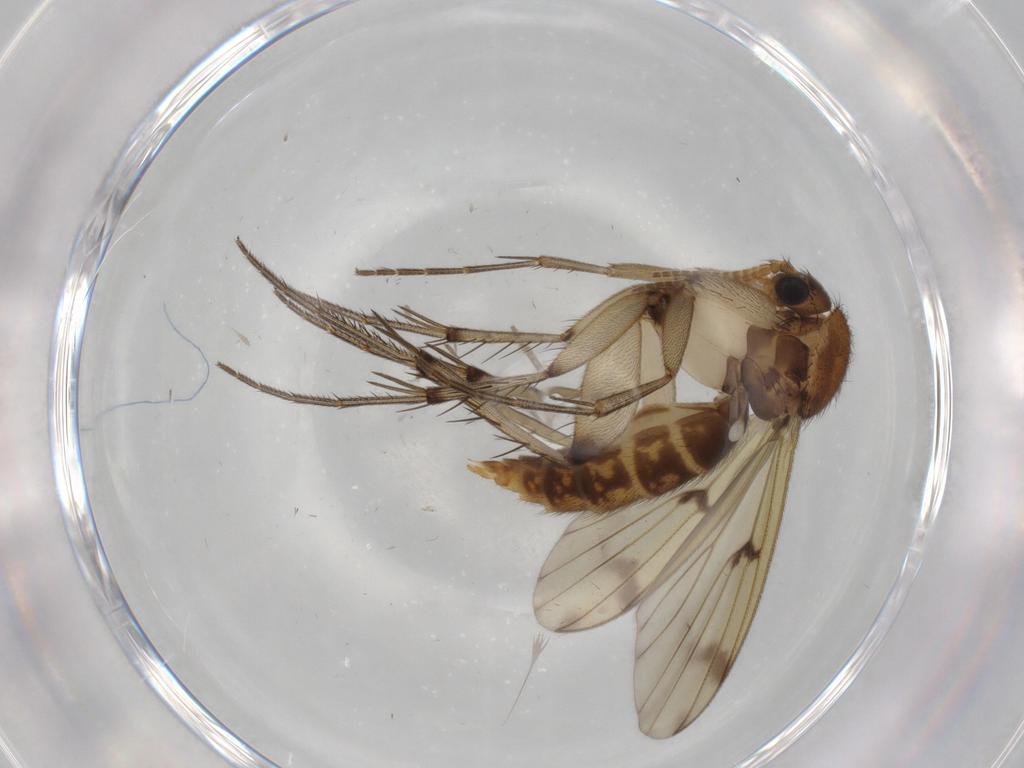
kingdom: Animalia
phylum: Arthropoda
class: Insecta
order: Diptera
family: Mycetophilidae
